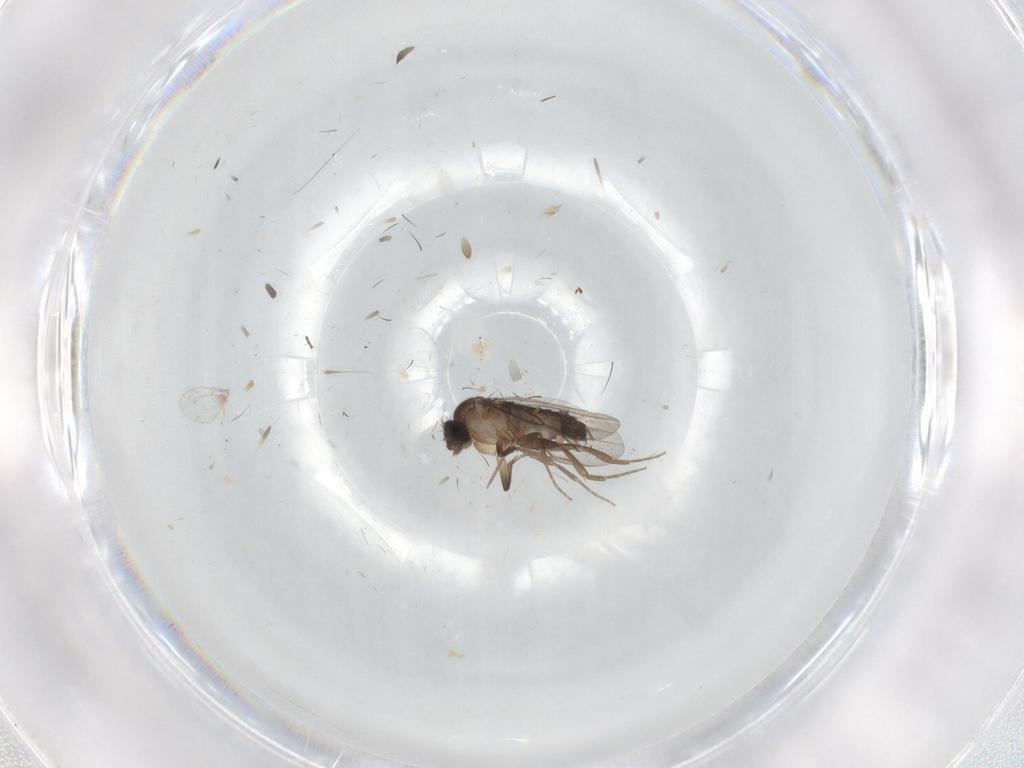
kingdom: Animalia
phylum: Arthropoda
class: Insecta
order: Diptera
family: Phoridae
